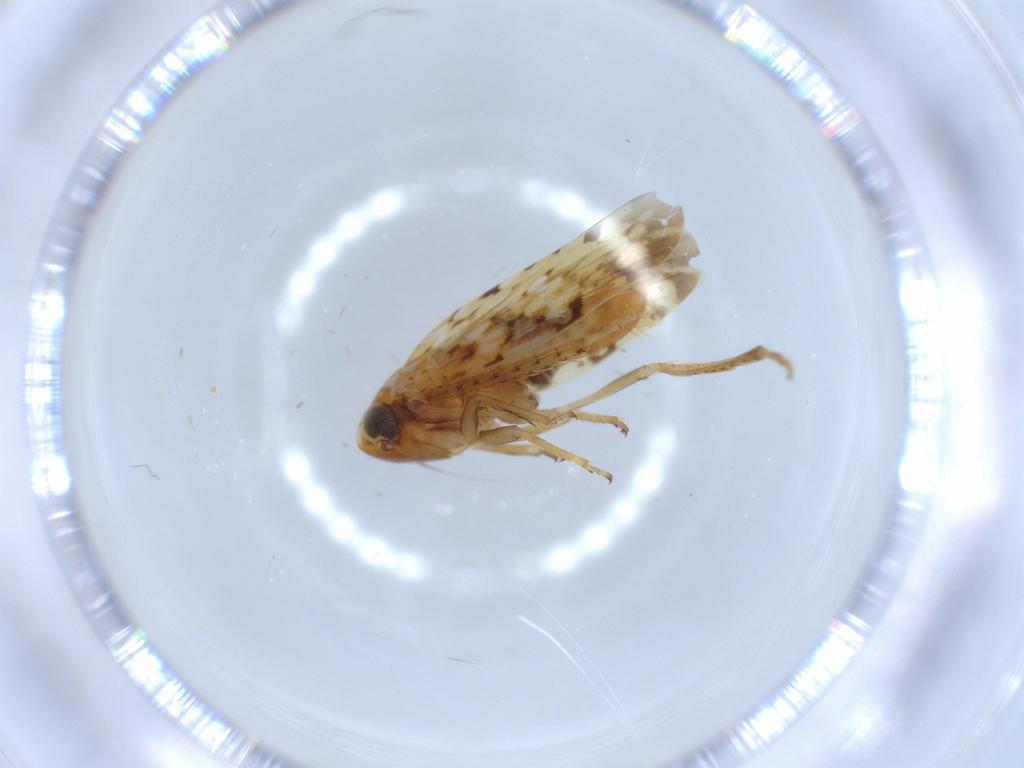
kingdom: Animalia
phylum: Arthropoda
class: Insecta
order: Hemiptera
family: Cicadellidae
